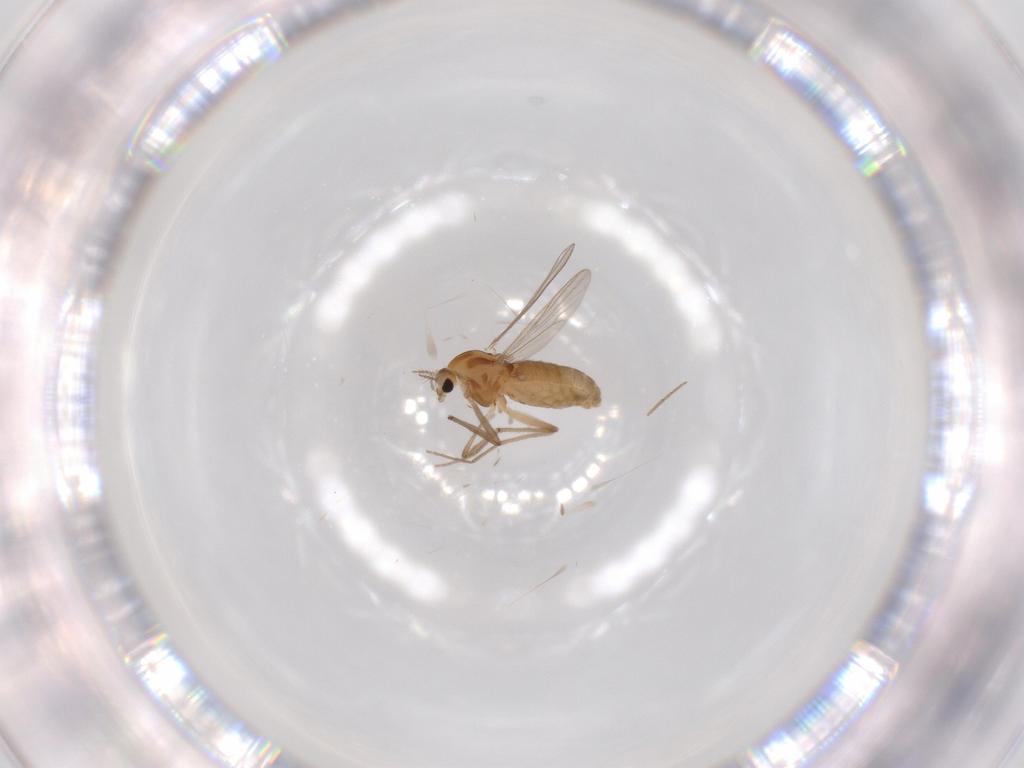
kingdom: Animalia
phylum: Arthropoda
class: Insecta
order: Diptera
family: Chironomidae
